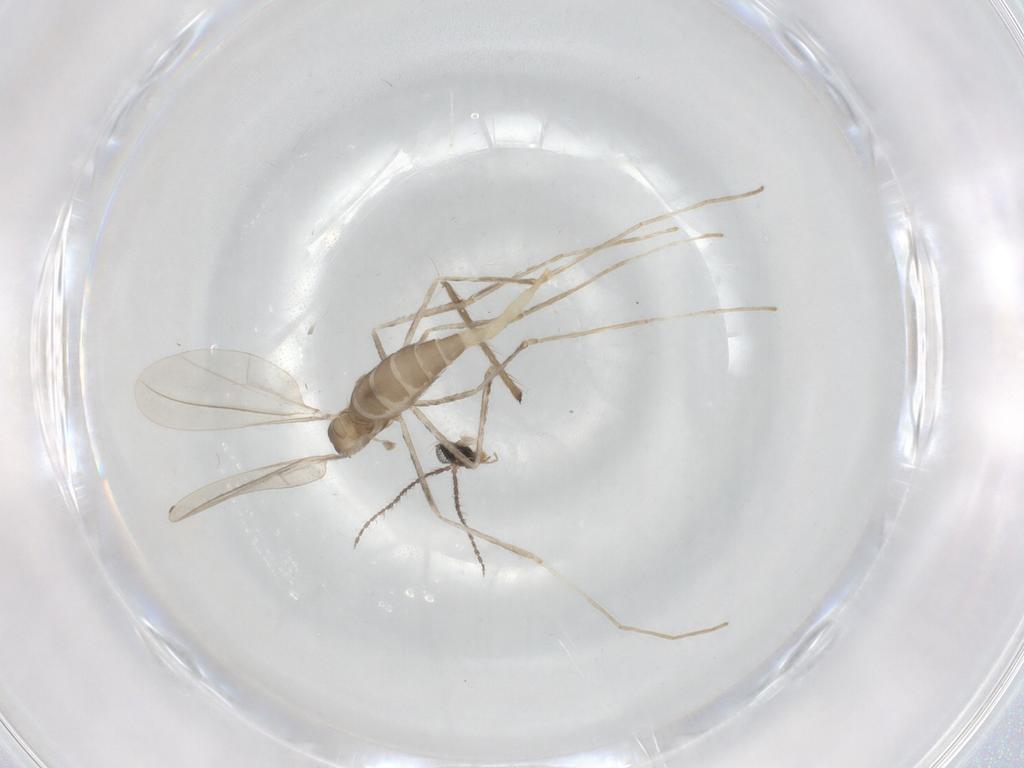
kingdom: Animalia
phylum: Arthropoda
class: Insecta
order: Diptera
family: Cecidomyiidae
